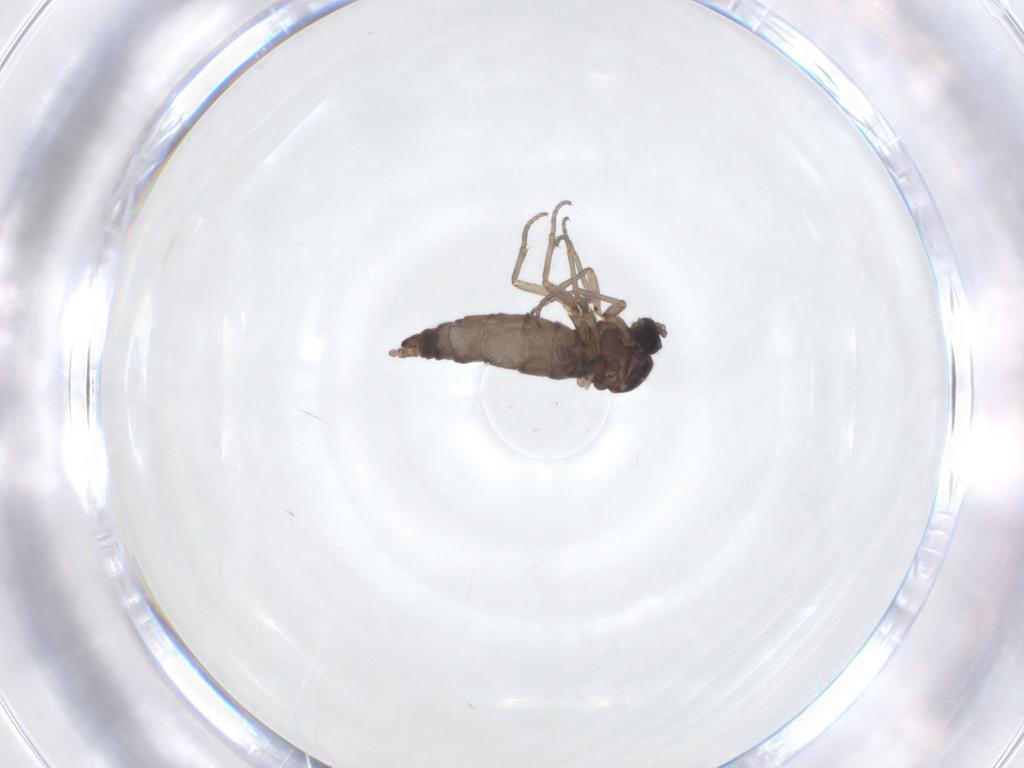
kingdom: Animalia
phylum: Arthropoda
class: Insecta
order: Diptera
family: Sciaridae
